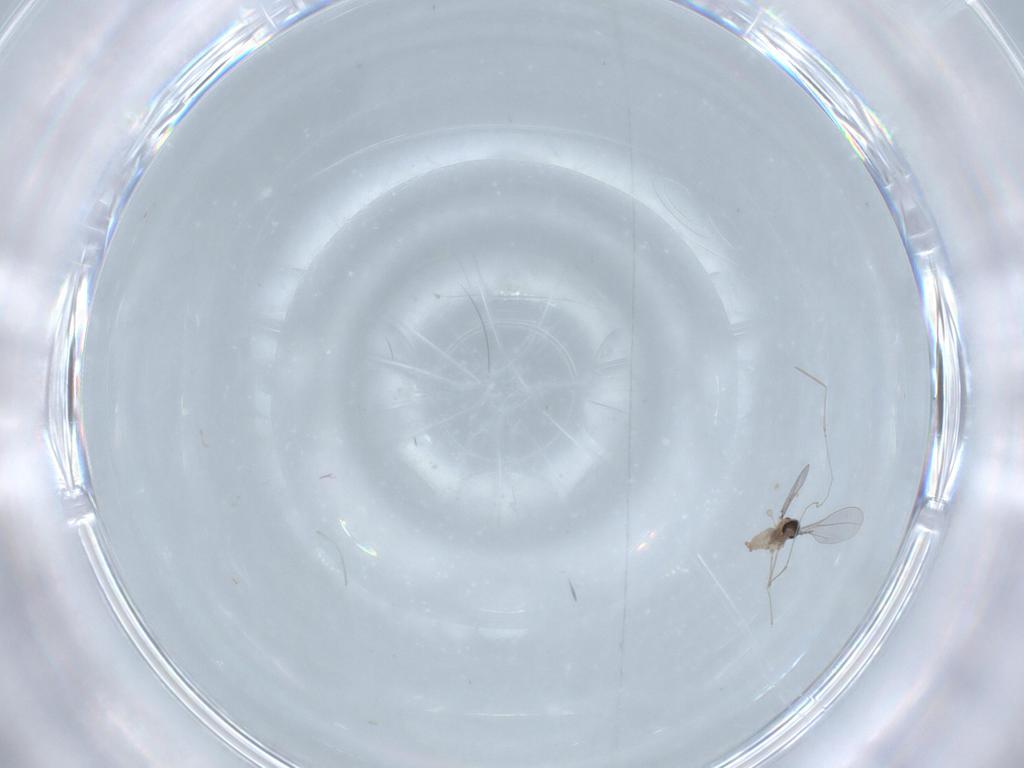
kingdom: Animalia
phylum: Arthropoda
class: Insecta
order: Diptera
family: Cecidomyiidae
